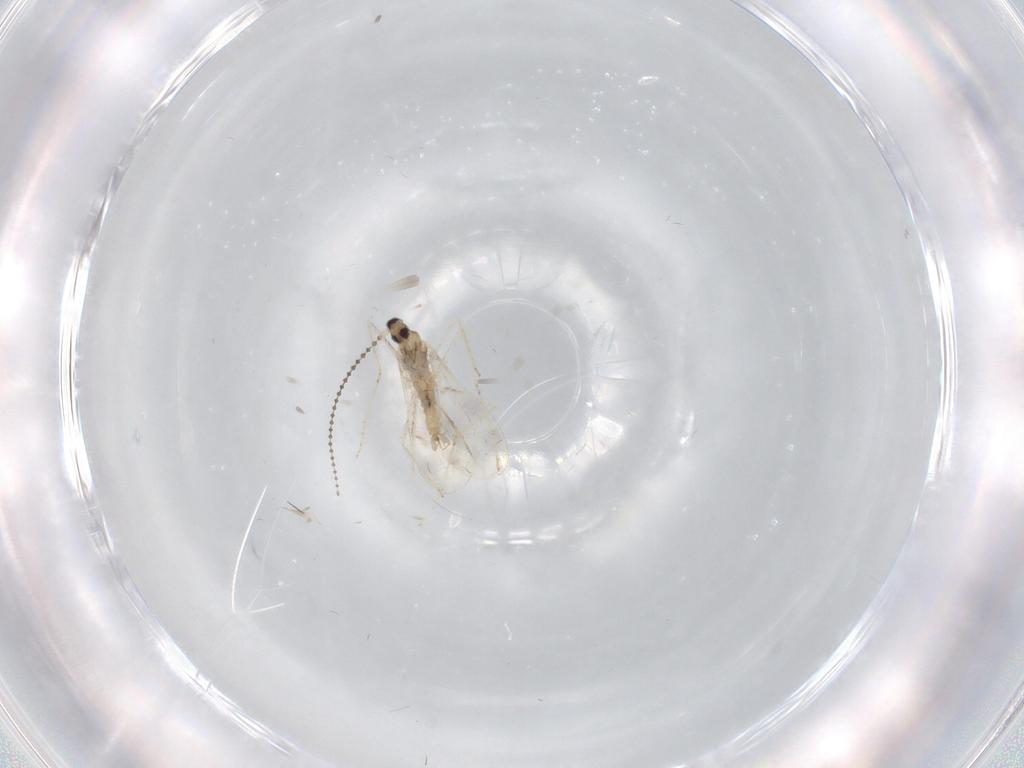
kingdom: Animalia
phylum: Arthropoda
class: Insecta
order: Diptera
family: Cecidomyiidae
